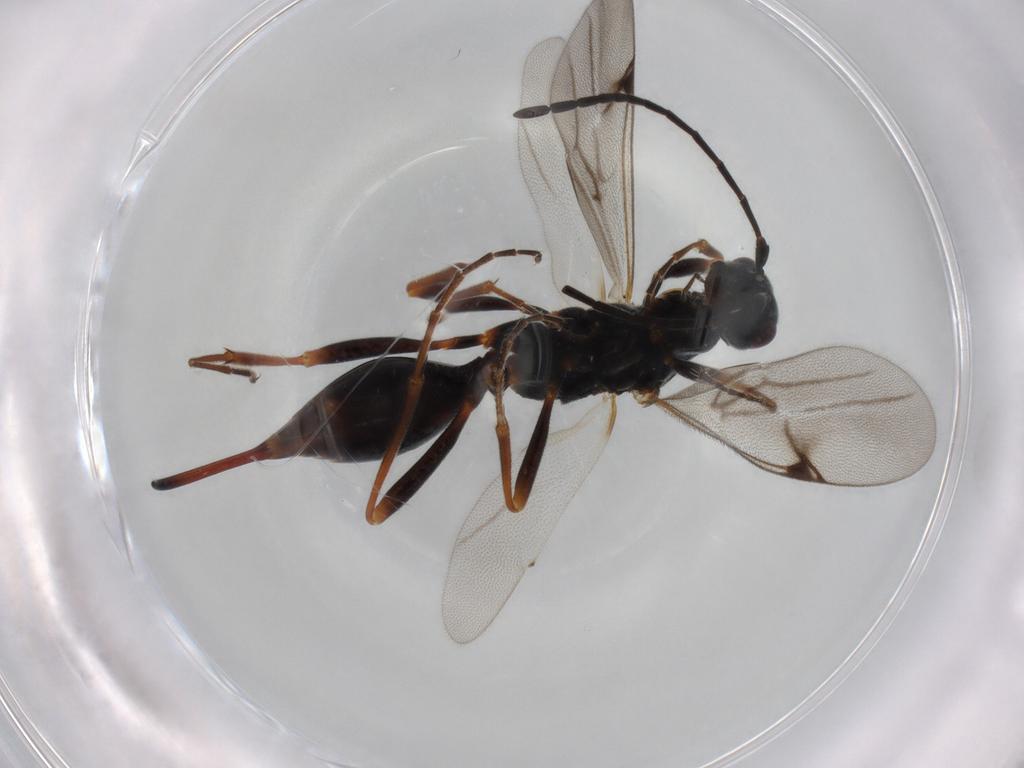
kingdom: Animalia
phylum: Arthropoda
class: Insecta
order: Hymenoptera
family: Proctotrupidae
